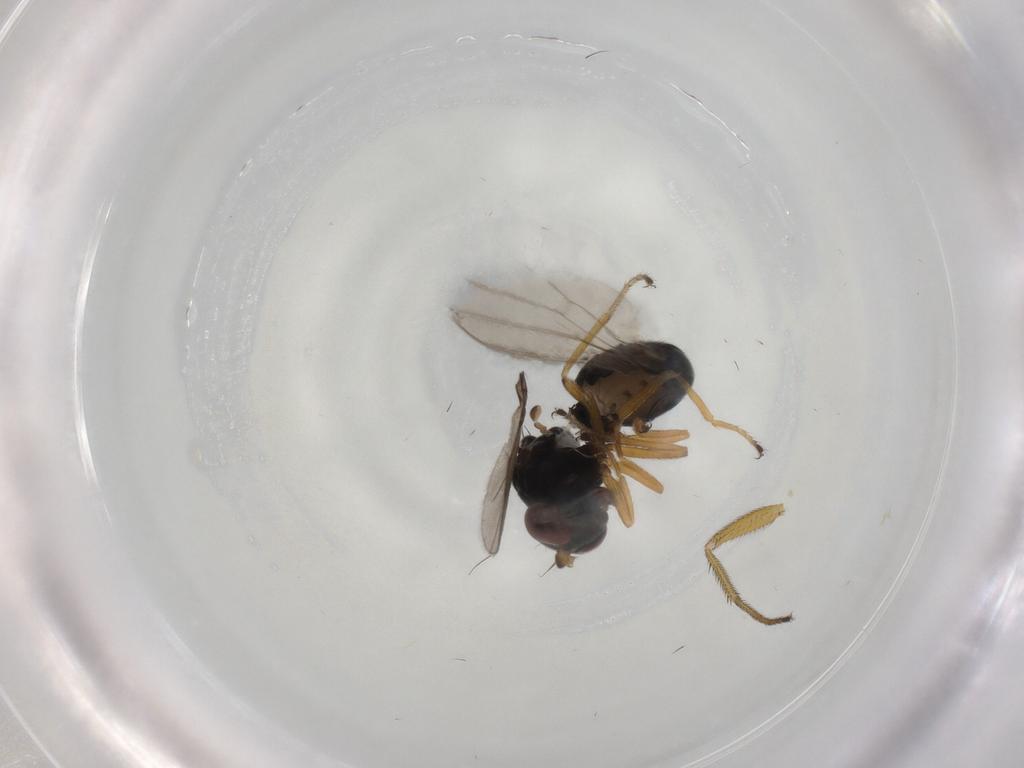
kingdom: Animalia
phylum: Arthropoda
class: Insecta
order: Diptera
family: Ephydridae
